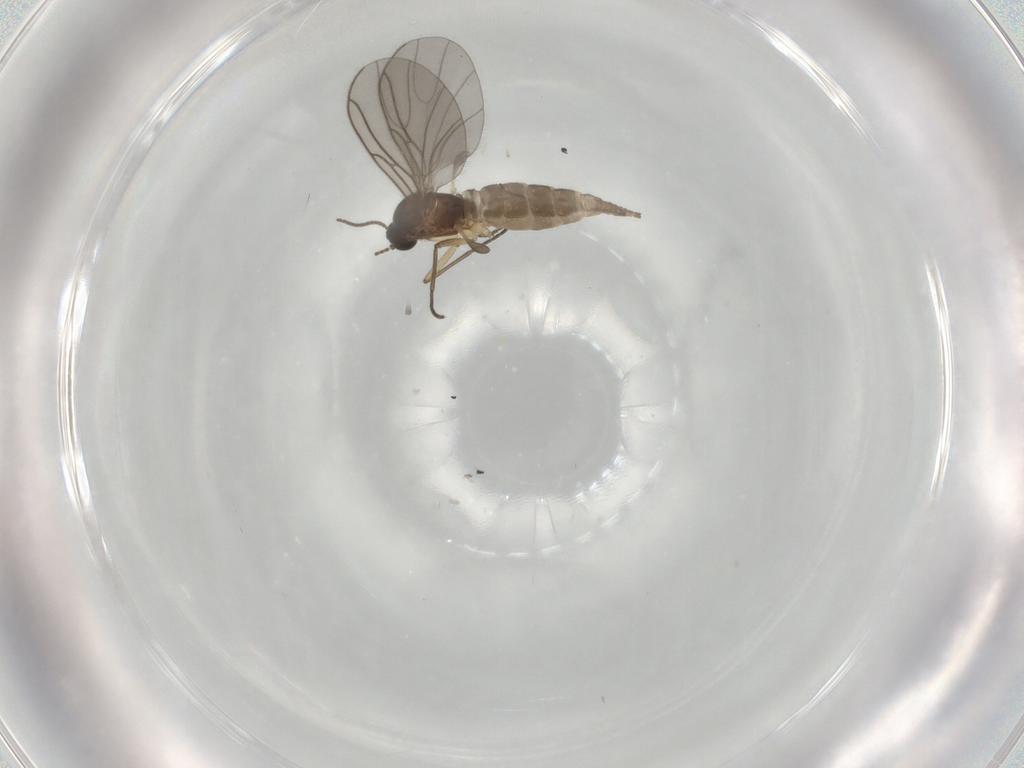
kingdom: Animalia
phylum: Arthropoda
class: Insecta
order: Diptera
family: Sciaridae
